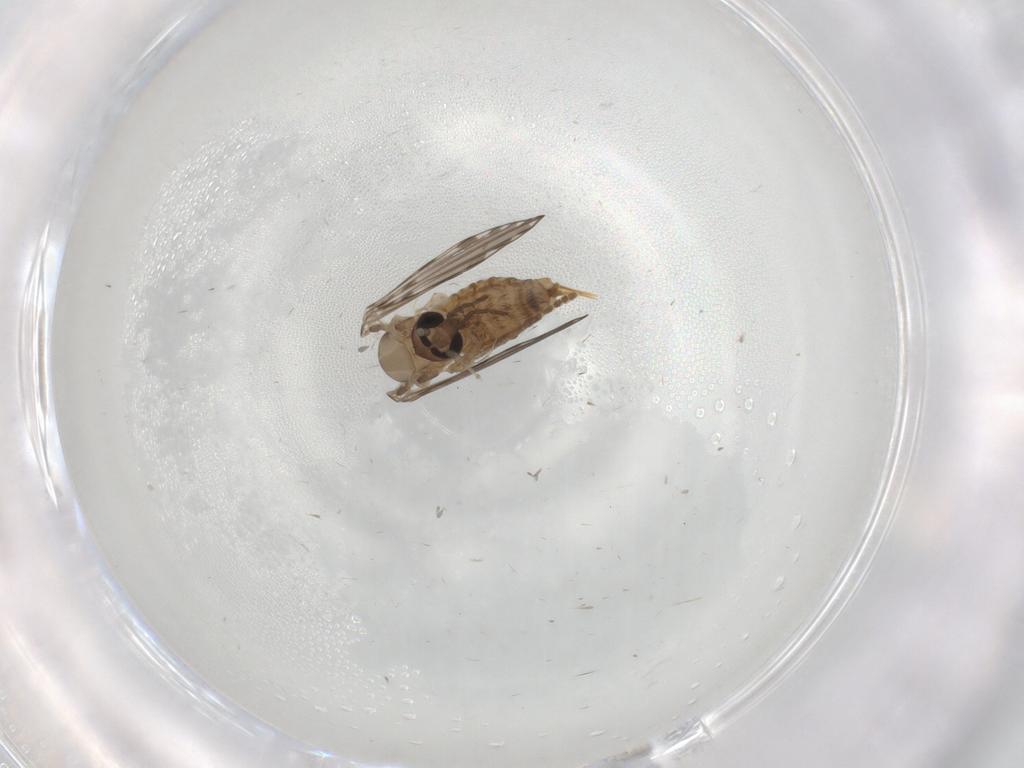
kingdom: Animalia
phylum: Arthropoda
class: Insecta
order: Diptera
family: Psychodidae
